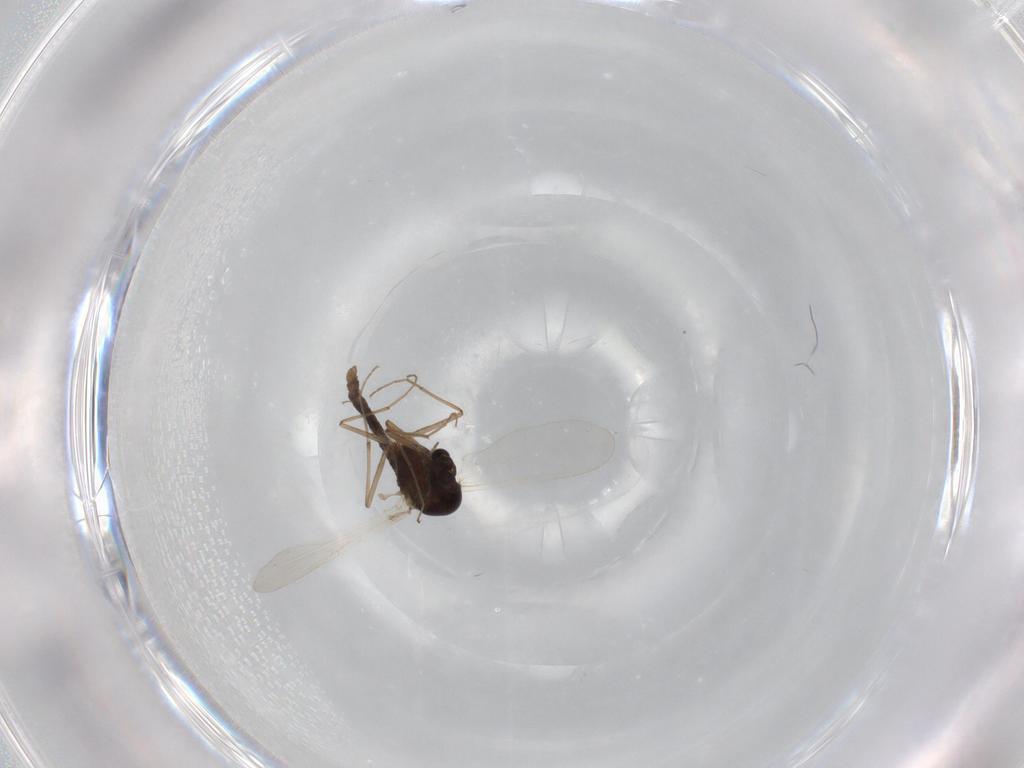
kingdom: Animalia
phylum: Arthropoda
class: Insecta
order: Diptera
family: Chironomidae
